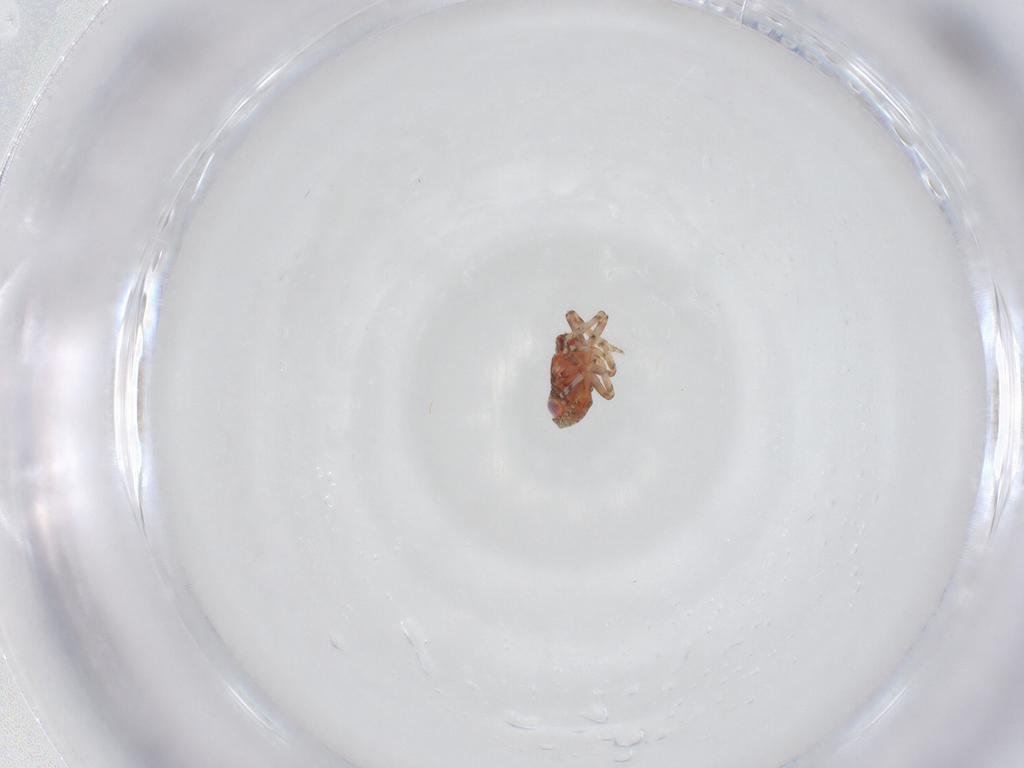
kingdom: Animalia
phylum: Arthropoda
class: Insecta
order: Hemiptera
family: Issidae
